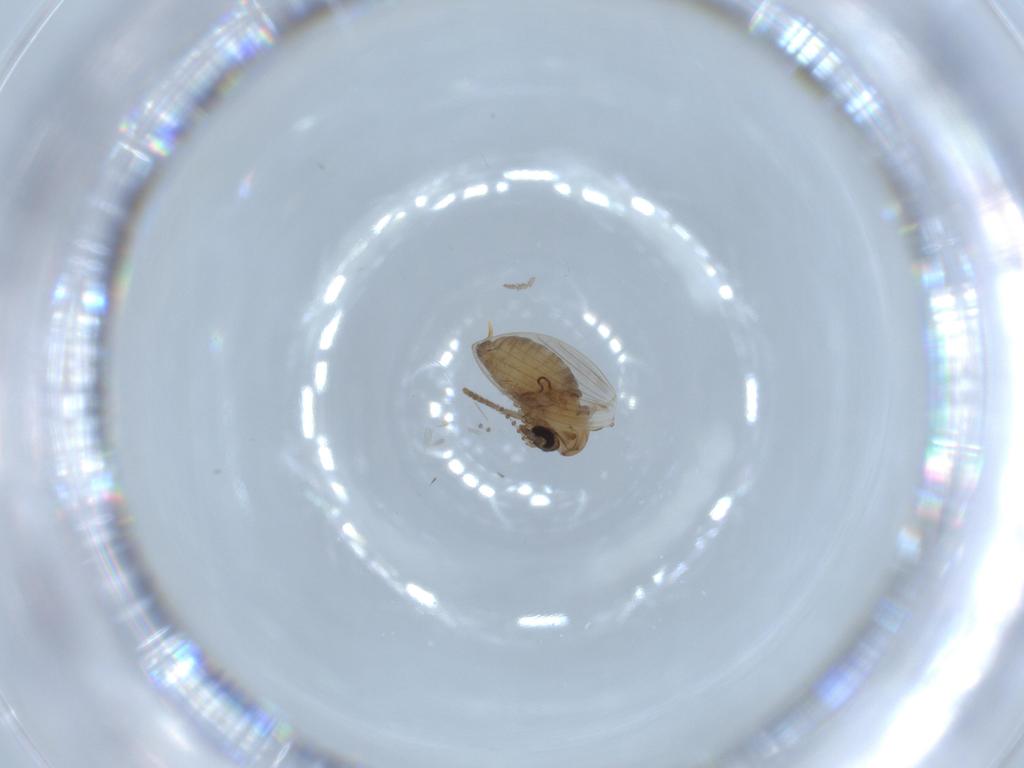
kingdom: Animalia
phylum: Arthropoda
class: Insecta
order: Diptera
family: Psychodidae
